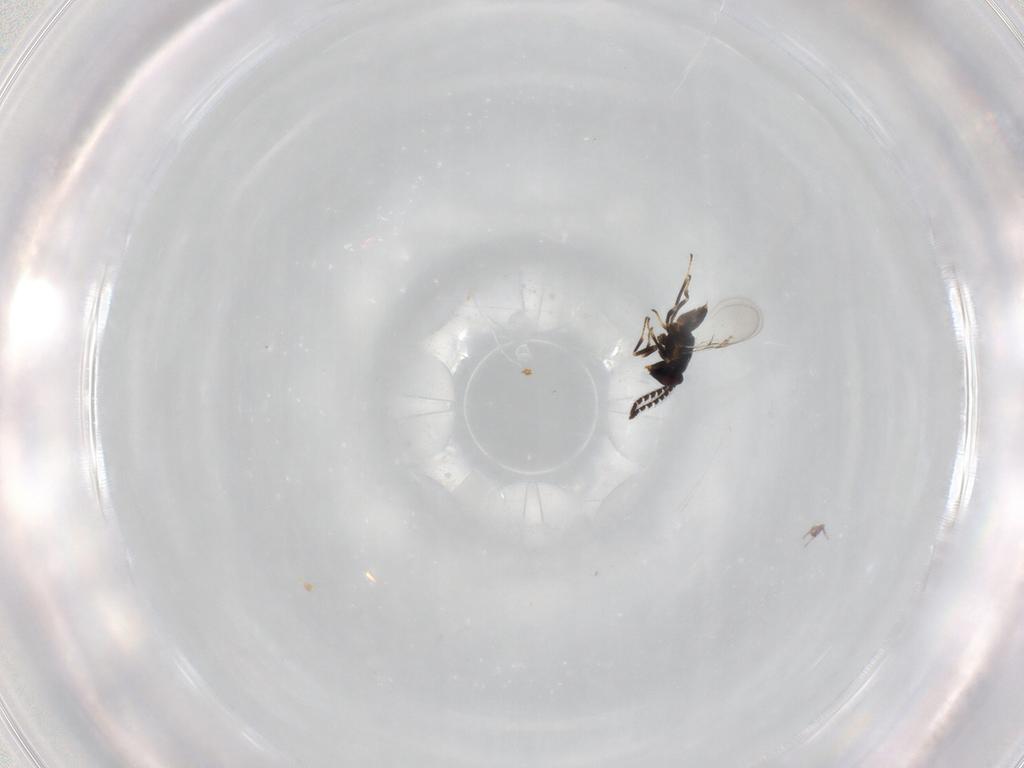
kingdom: Animalia
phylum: Arthropoda
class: Insecta
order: Hymenoptera
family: Encyrtidae
